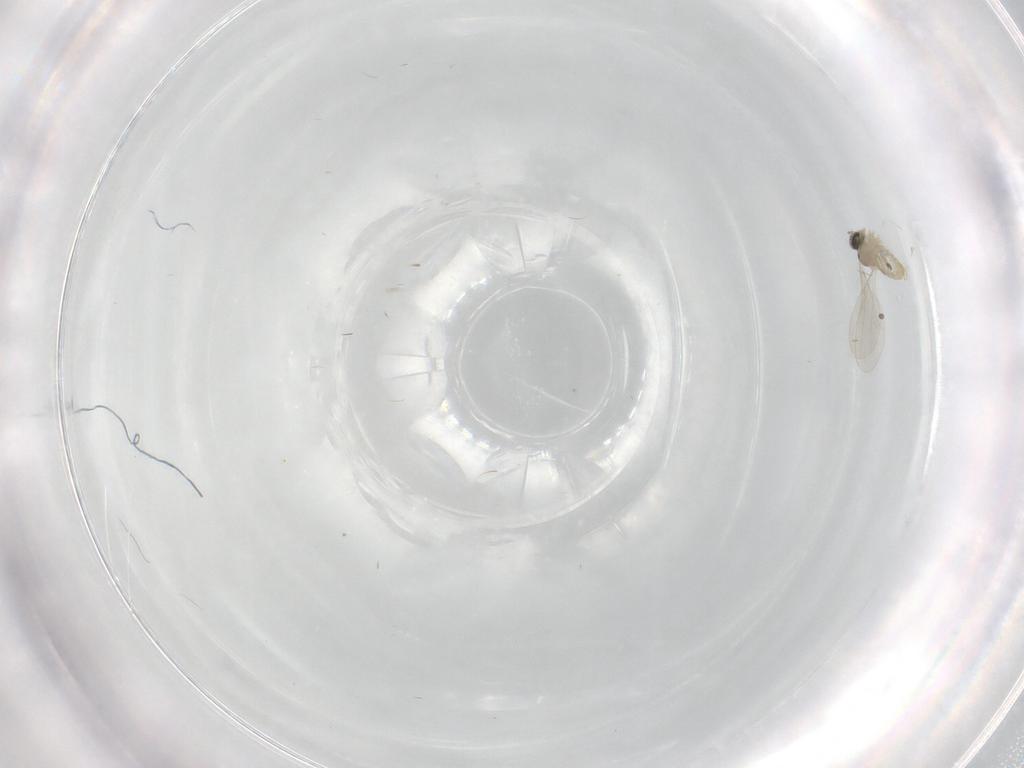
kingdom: Animalia
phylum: Arthropoda
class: Insecta
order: Diptera
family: Cecidomyiidae
